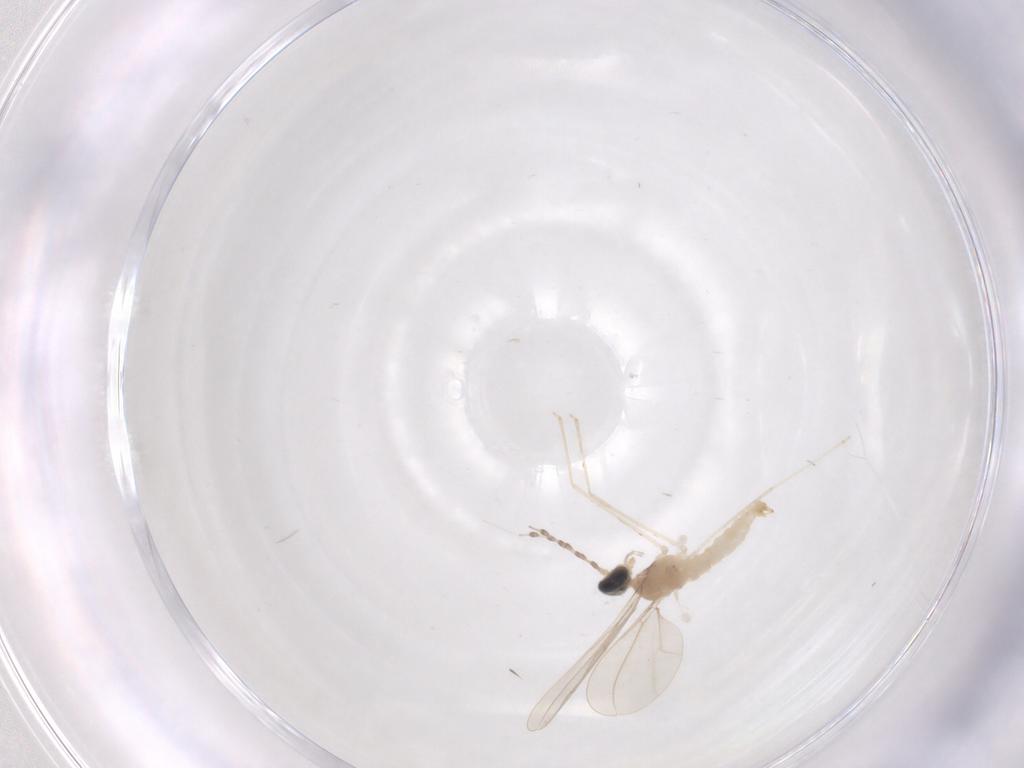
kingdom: Animalia
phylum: Arthropoda
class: Insecta
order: Diptera
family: Cecidomyiidae
